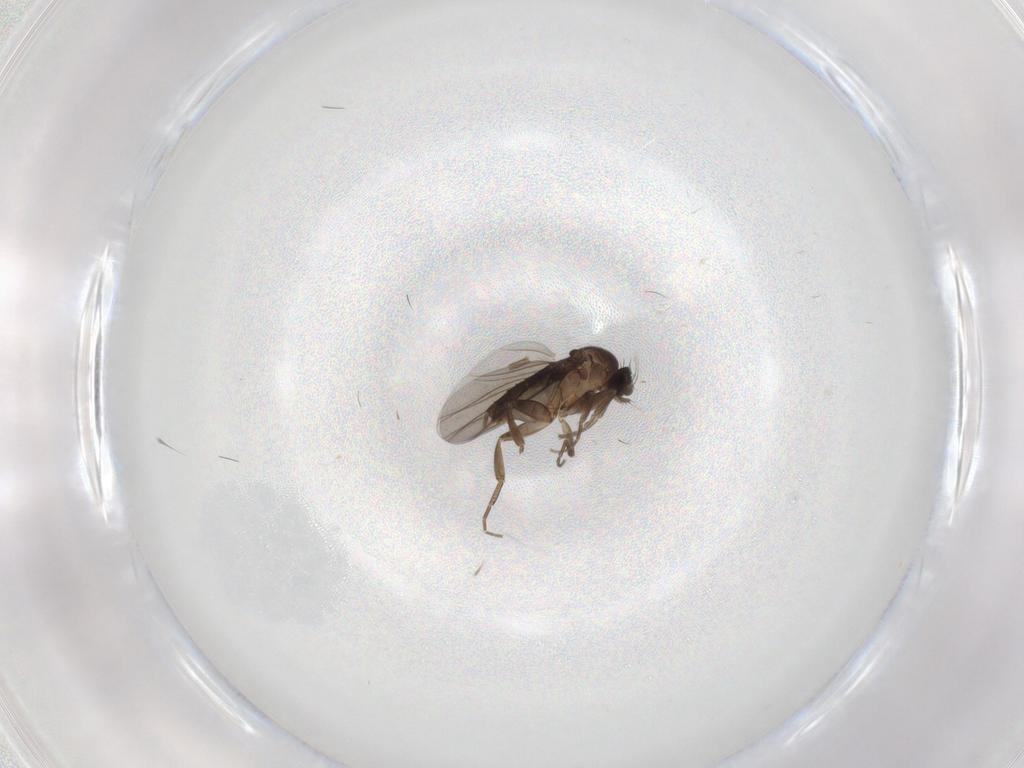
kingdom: Animalia
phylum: Arthropoda
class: Insecta
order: Diptera
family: Phoridae
